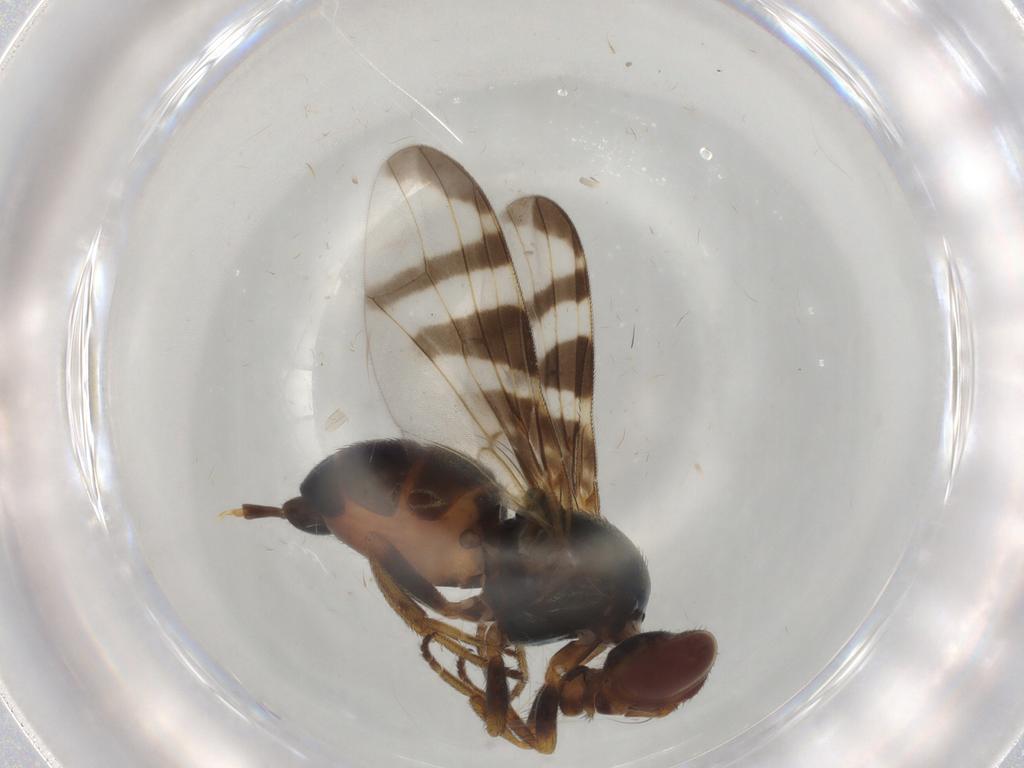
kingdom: Animalia
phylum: Arthropoda
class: Insecta
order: Diptera
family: Platystomatidae
